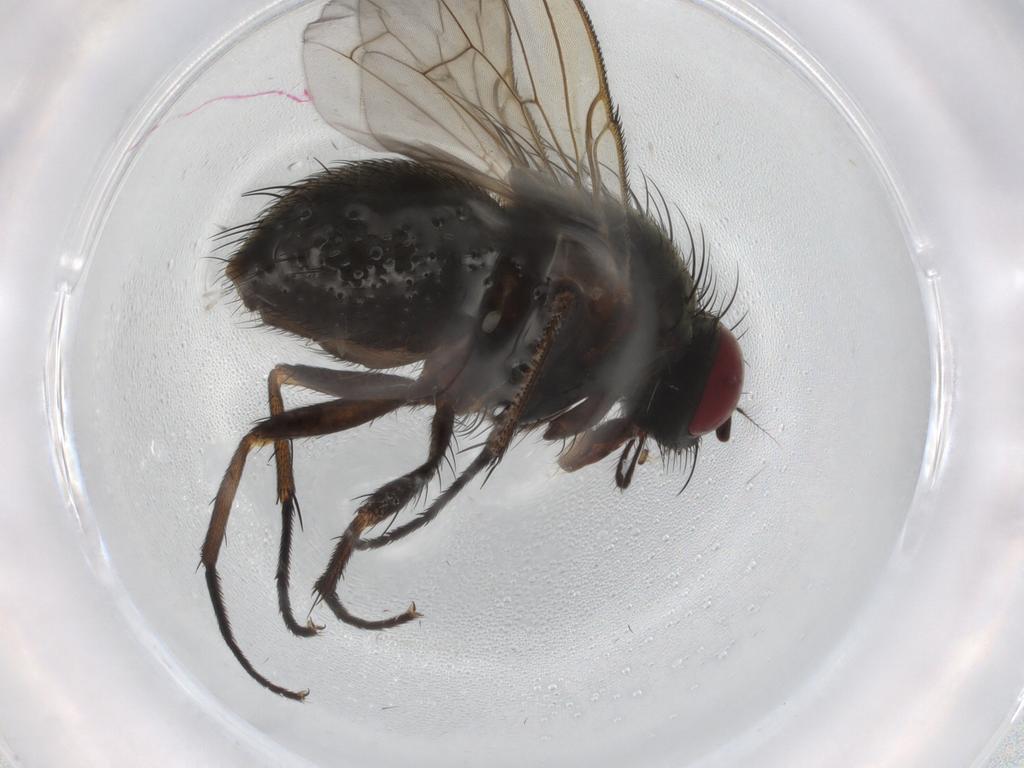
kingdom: Animalia
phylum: Arthropoda
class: Insecta
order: Diptera
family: Muscidae
